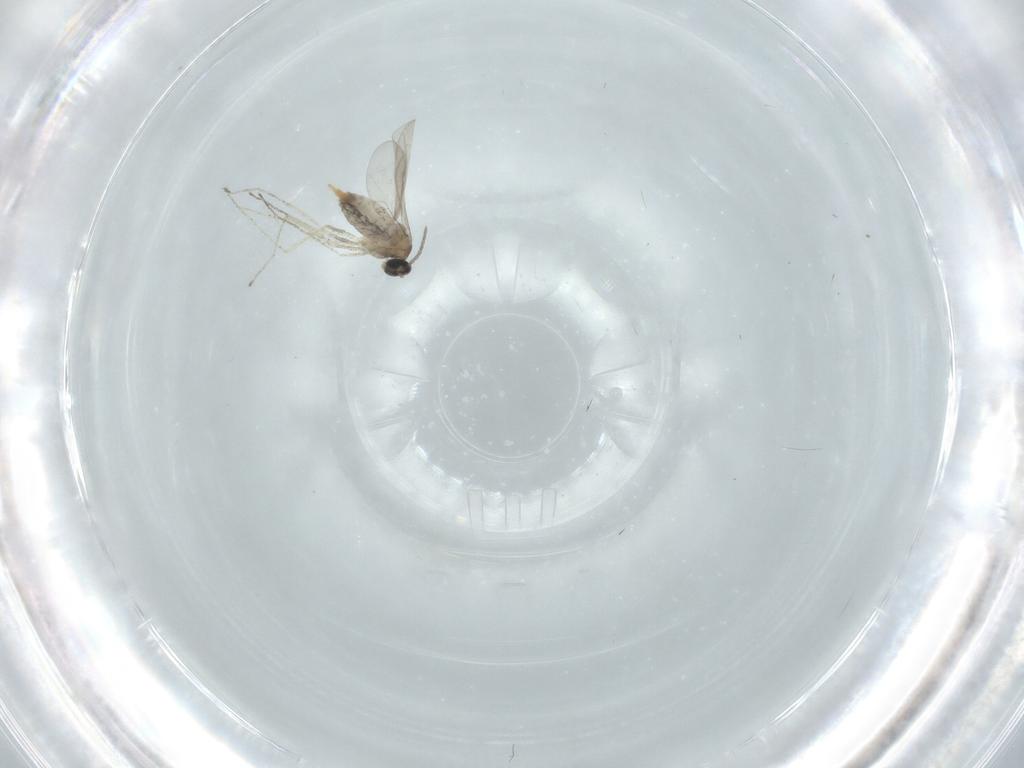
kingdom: Animalia
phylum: Arthropoda
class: Insecta
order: Diptera
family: Cecidomyiidae
